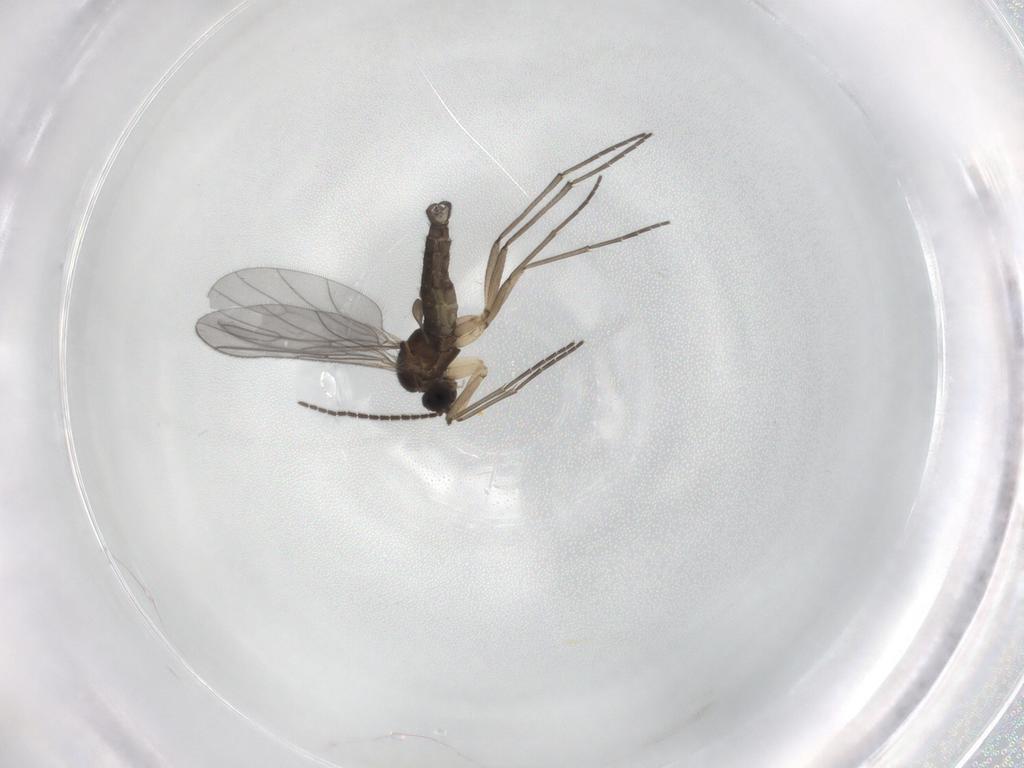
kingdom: Animalia
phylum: Arthropoda
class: Insecta
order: Diptera
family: Sciaridae
